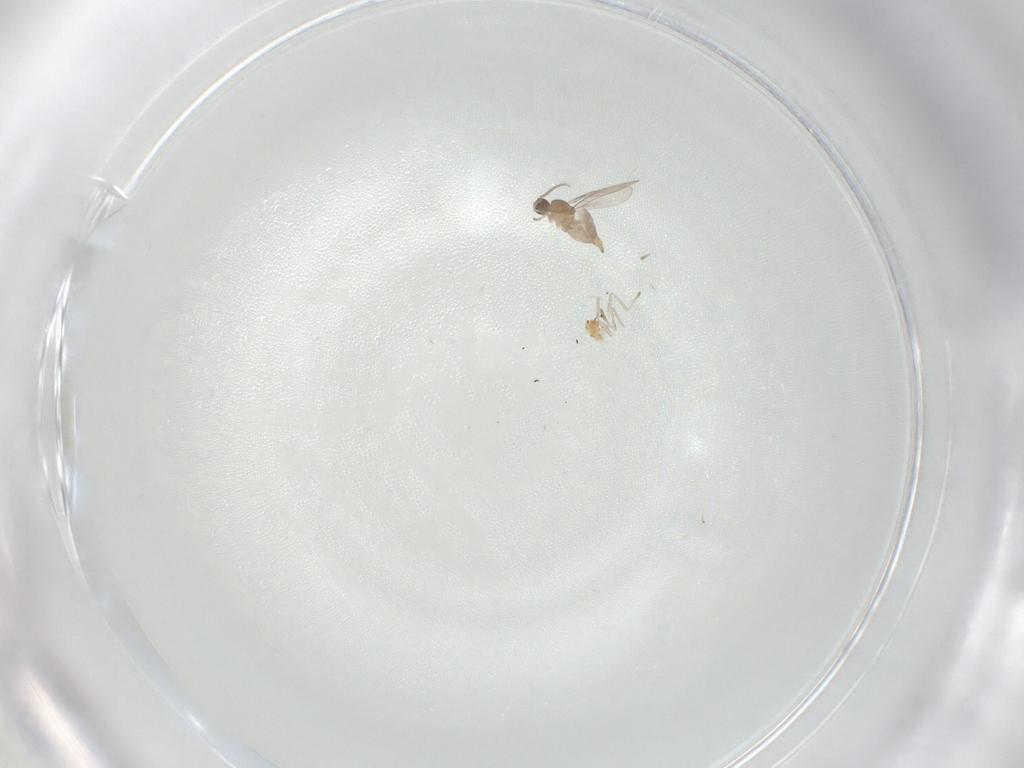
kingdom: Animalia
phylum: Arthropoda
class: Insecta
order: Diptera
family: Cecidomyiidae
